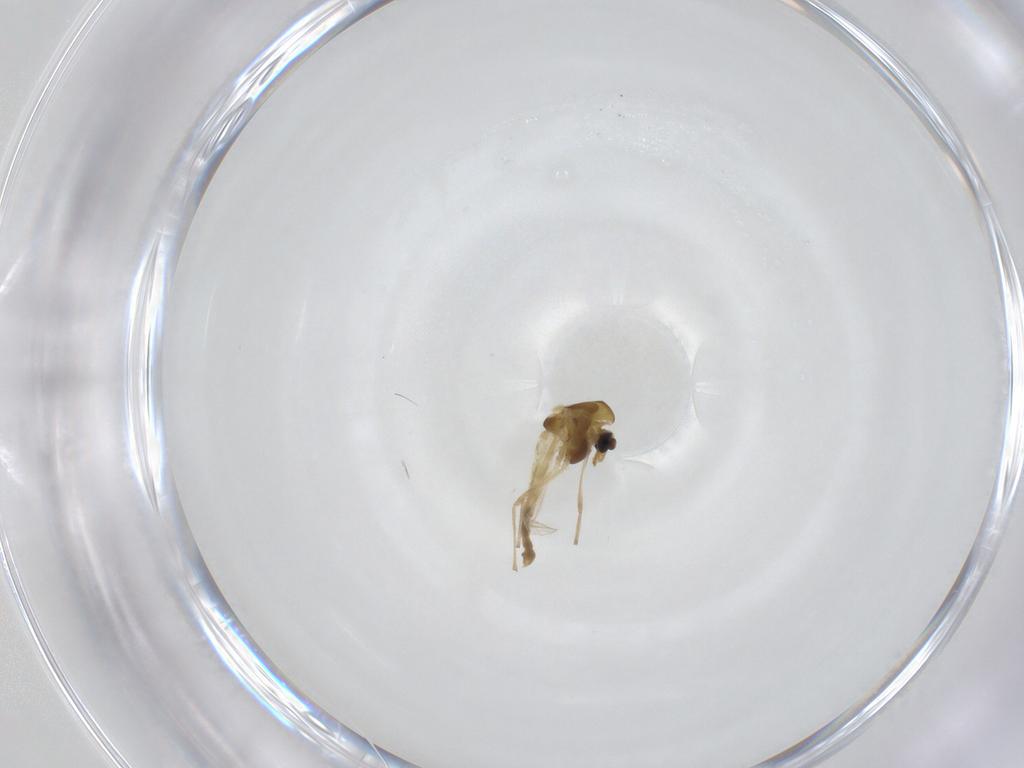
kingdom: Animalia
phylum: Arthropoda
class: Insecta
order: Diptera
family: Chironomidae
